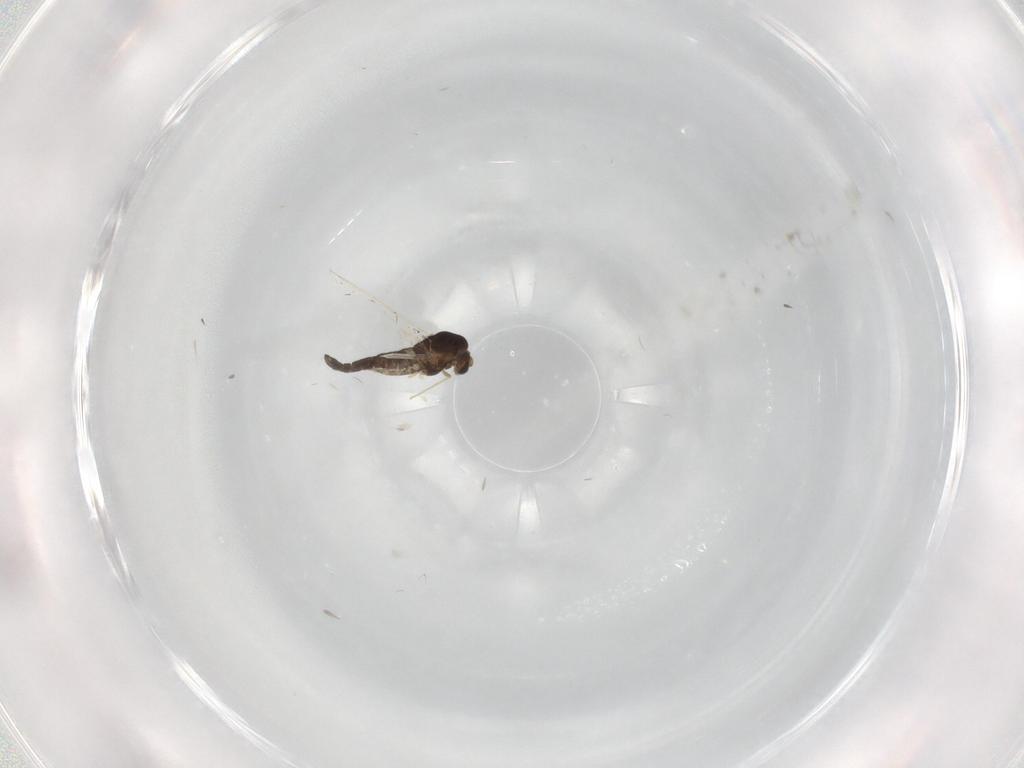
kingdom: Animalia
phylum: Arthropoda
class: Insecta
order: Diptera
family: Chironomidae
